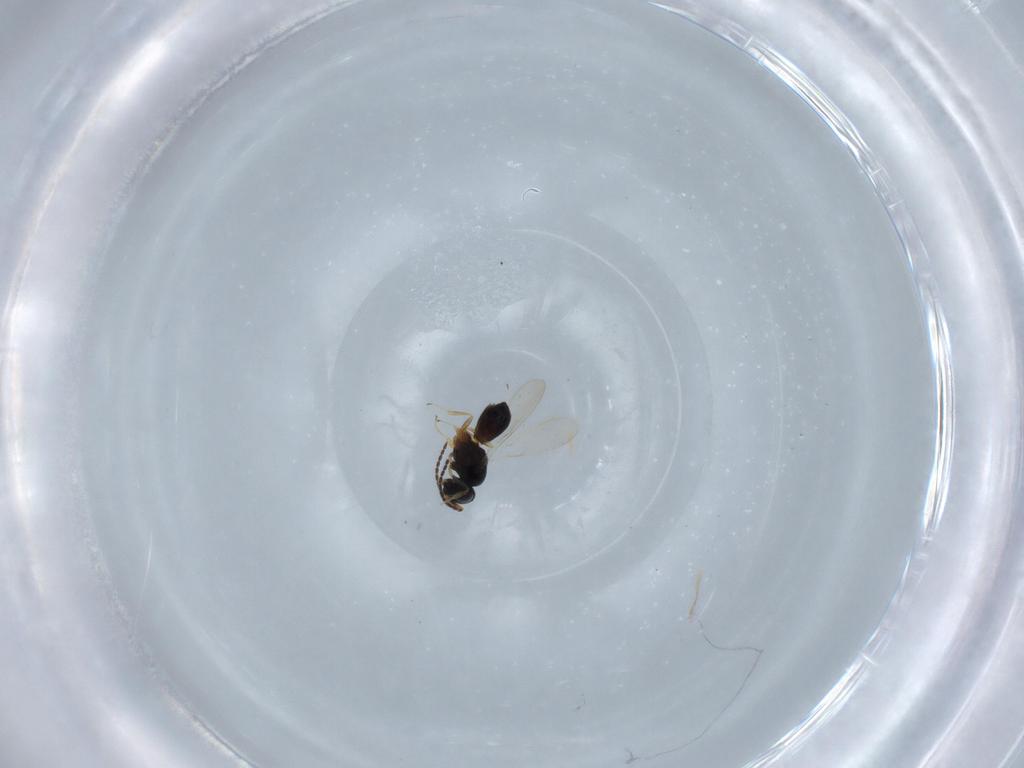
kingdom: Animalia
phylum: Arthropoda
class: Insecta
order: Hymenoptera
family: Scelionidae
